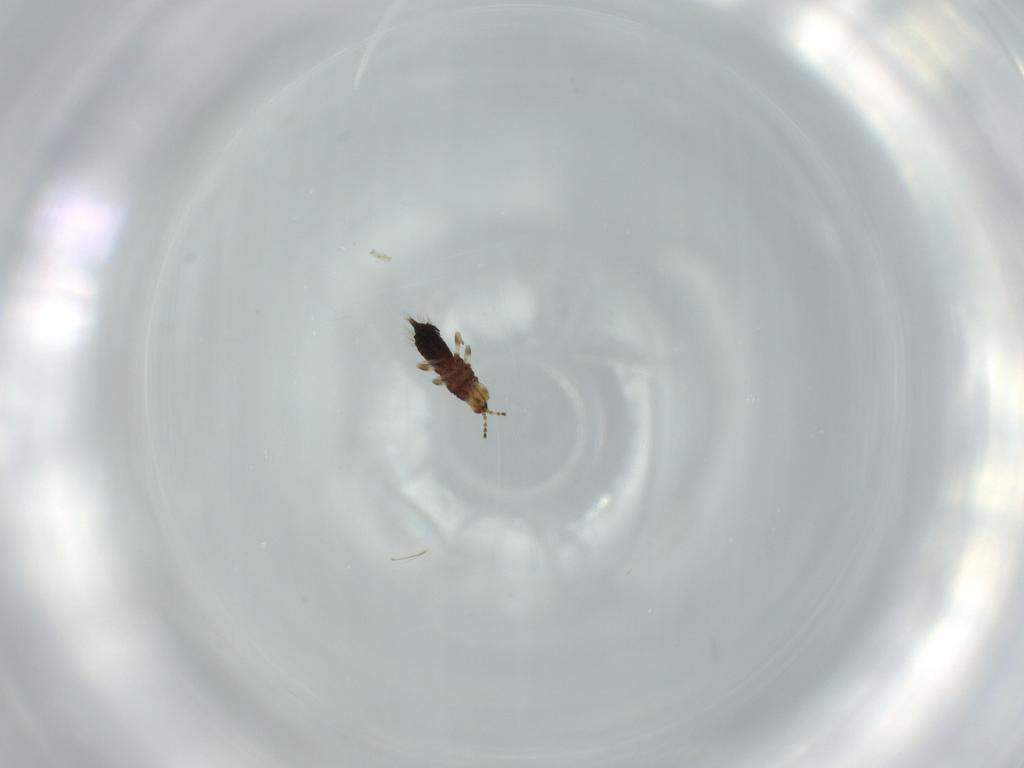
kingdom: Animalia
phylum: Arthropoda
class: Insecta
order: Thysanoptera
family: Phlaeothripidae
